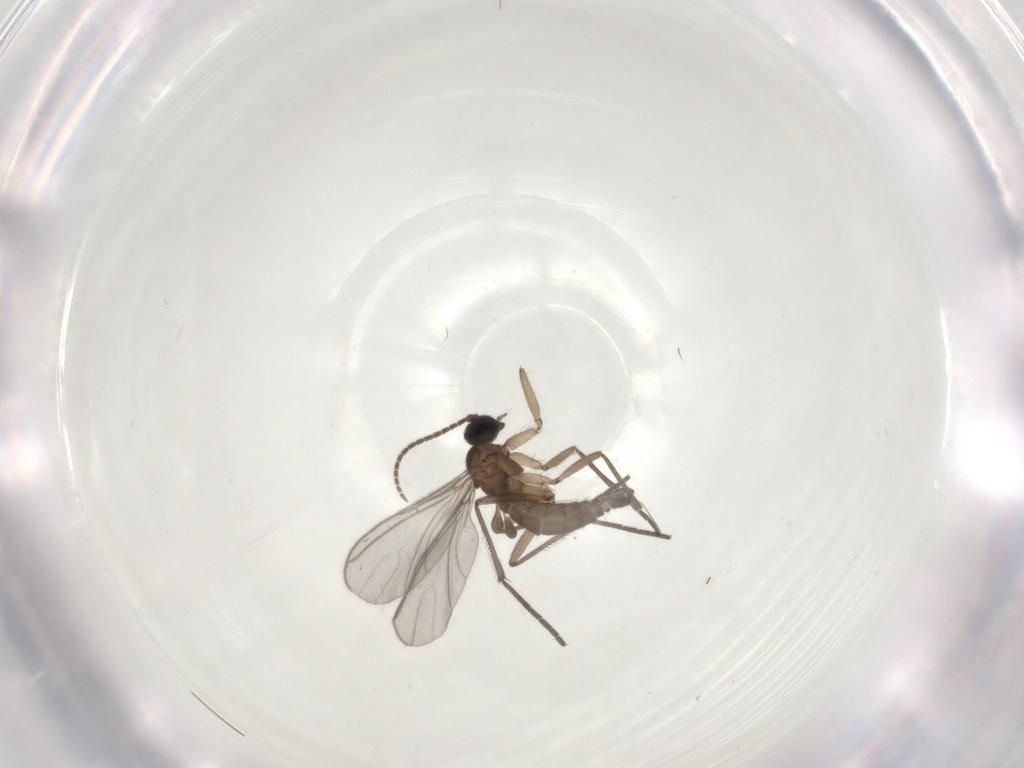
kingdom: Animalia
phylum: Arthropoda
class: Insecta
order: Diptera
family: Sciaridae
